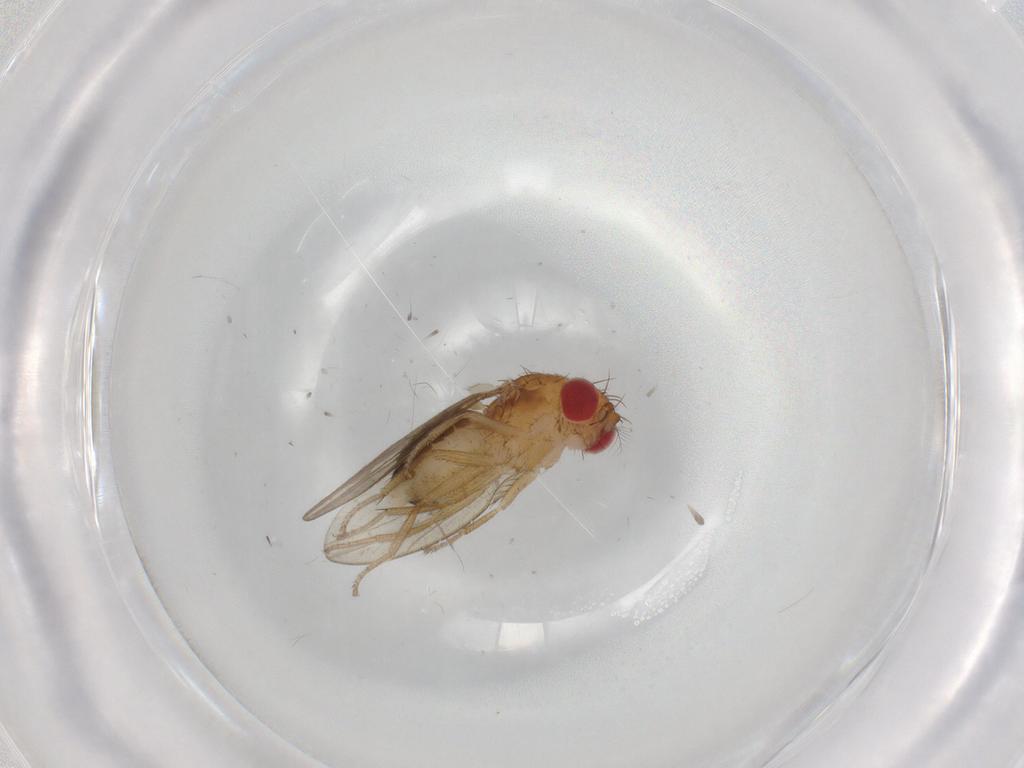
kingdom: Animalia
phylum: Arthropoda
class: Insecta
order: Diptera
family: Drosophilidae
